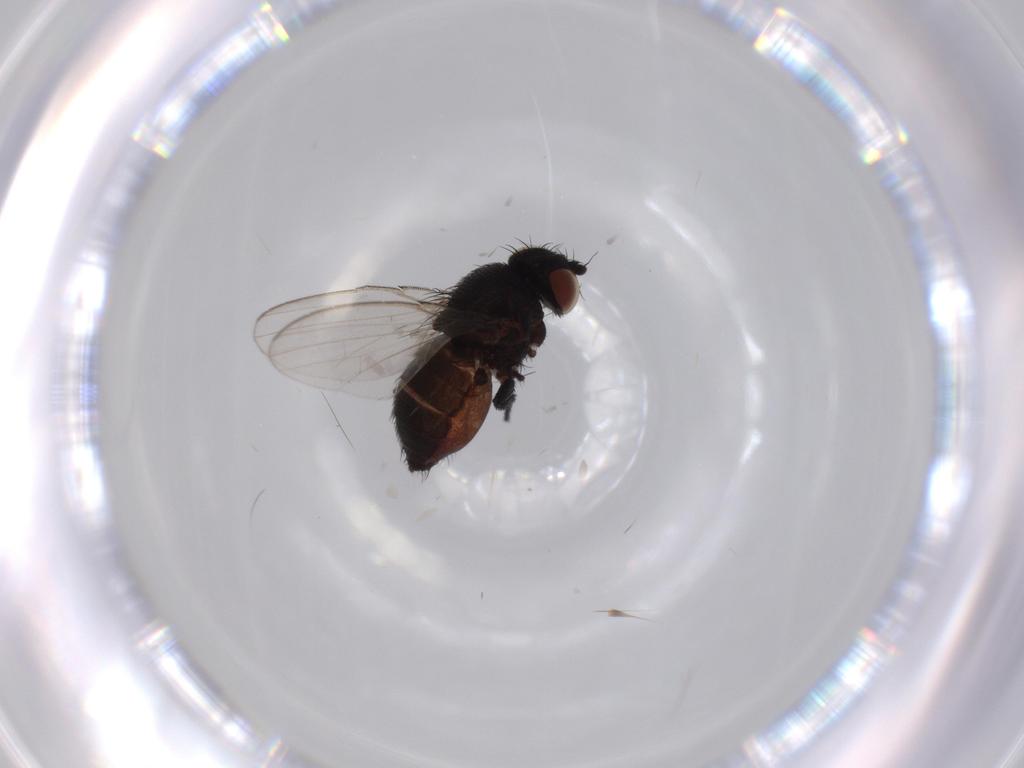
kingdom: Animalia
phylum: Arthropoda
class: Insecta
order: Diptera
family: Milichiidae
